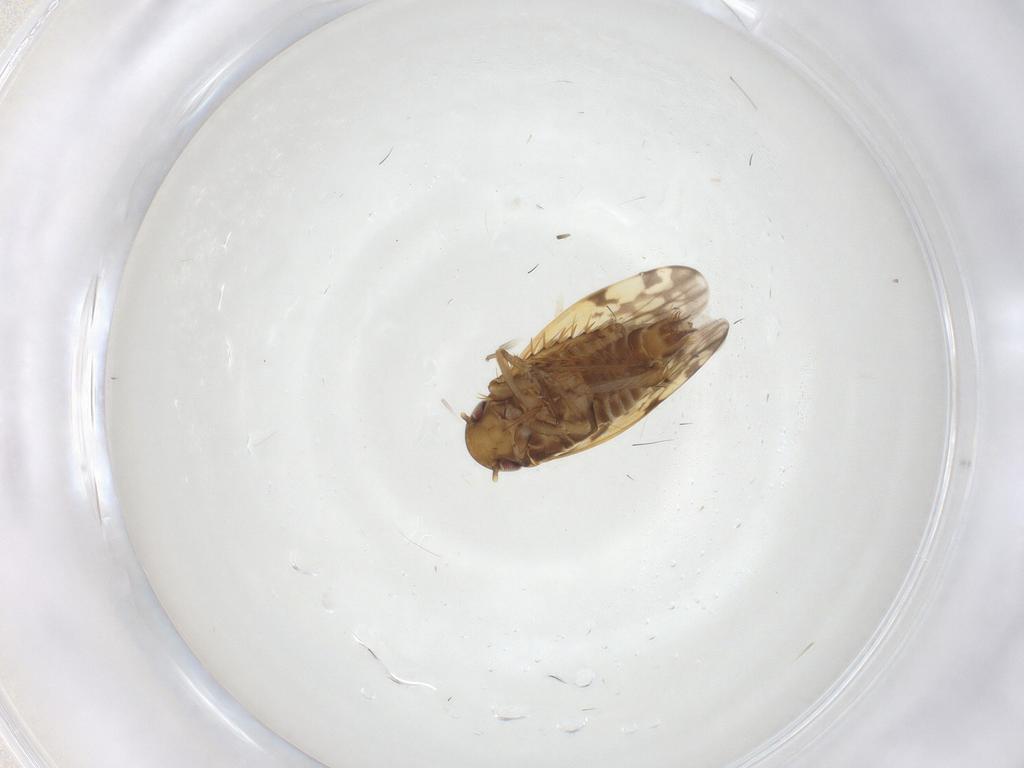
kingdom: Animalia
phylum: Arthropoda
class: Insecta
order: Hemiptera
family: Cicadellidae
